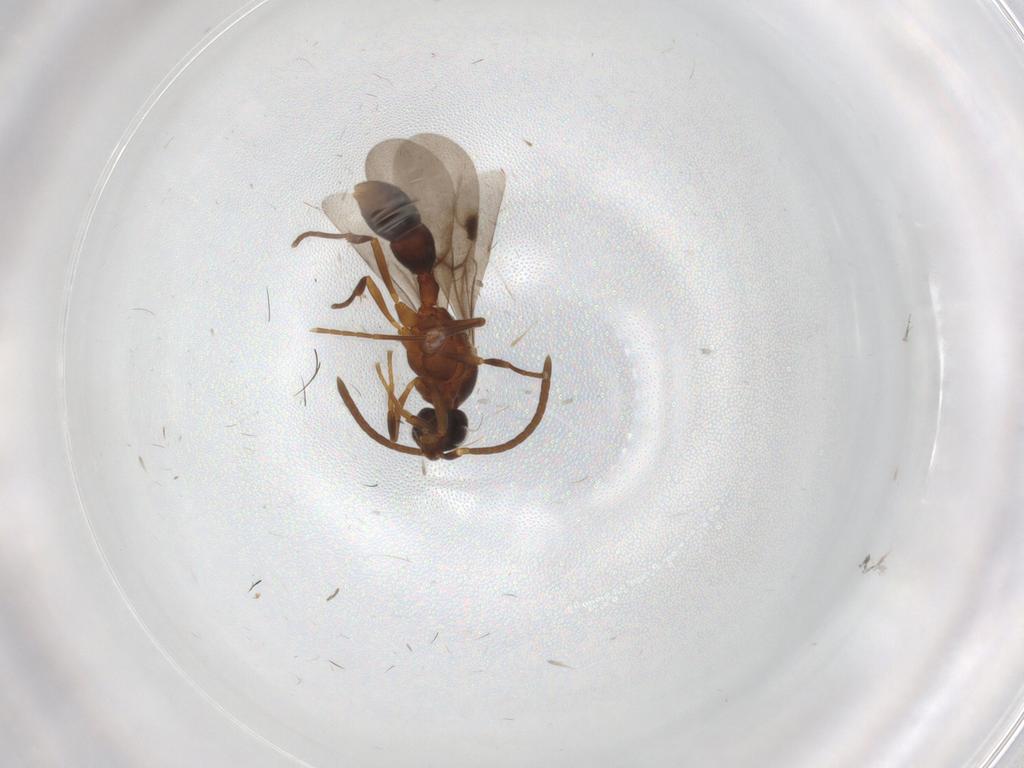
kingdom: Animalia
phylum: Arthropoda
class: Insecta
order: Hymenoptera
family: Formicidae
